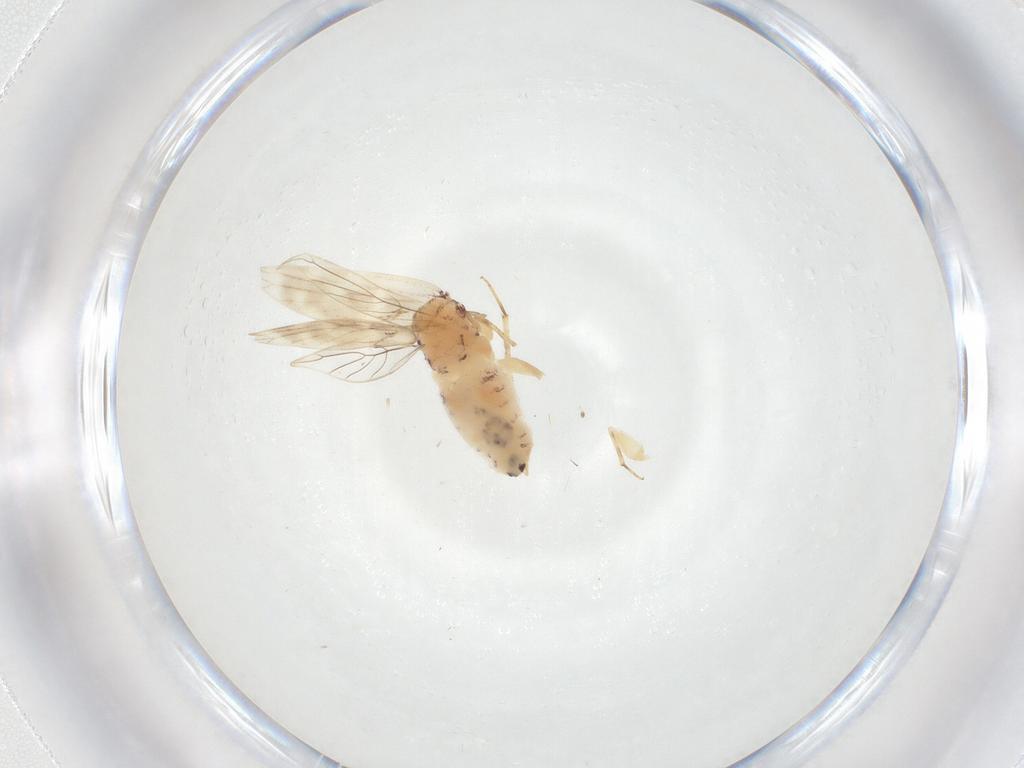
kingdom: Animalia
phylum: Arthropoda
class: Insecta
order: Psocodea
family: Lepidopsocidae
